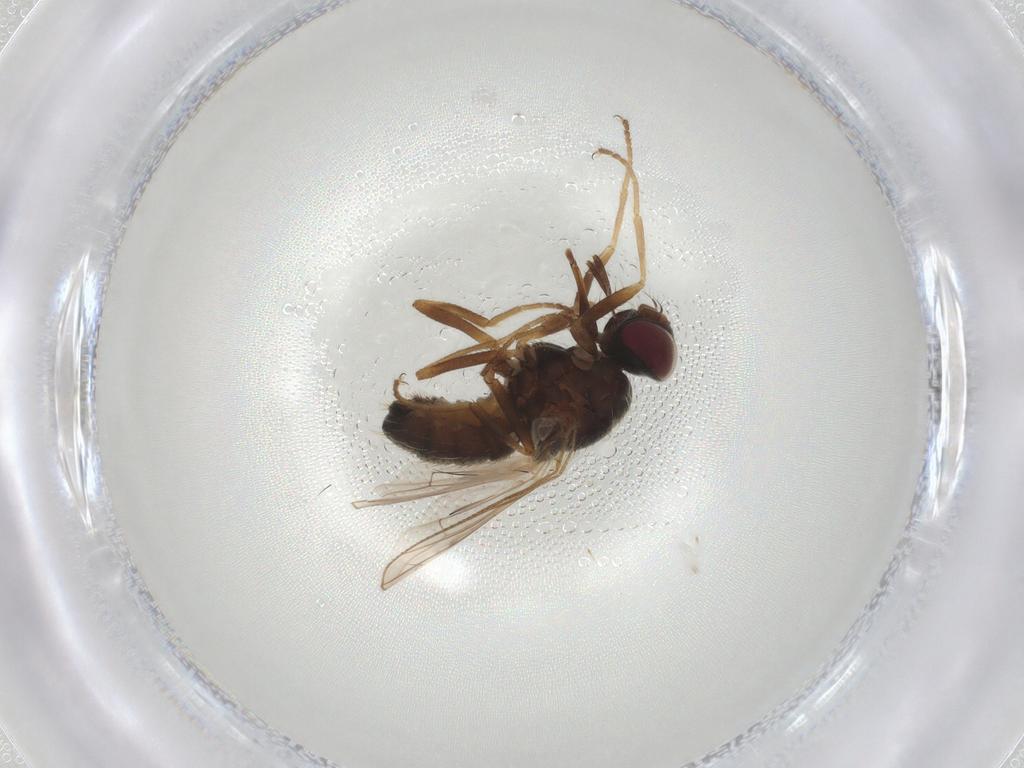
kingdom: Animalia
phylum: Arthropoda
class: Insecta
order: Diptera
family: Muscidae
